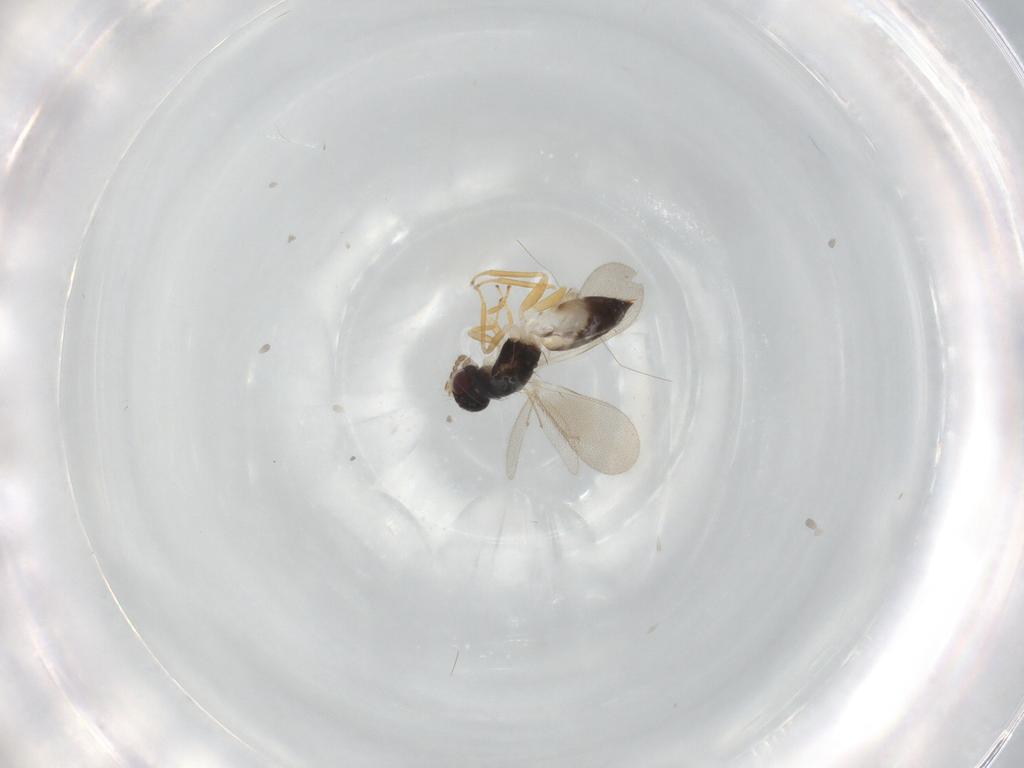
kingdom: Animalia
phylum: Arthropoda
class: Insecta
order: Hymenoptera
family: Eulophidae
